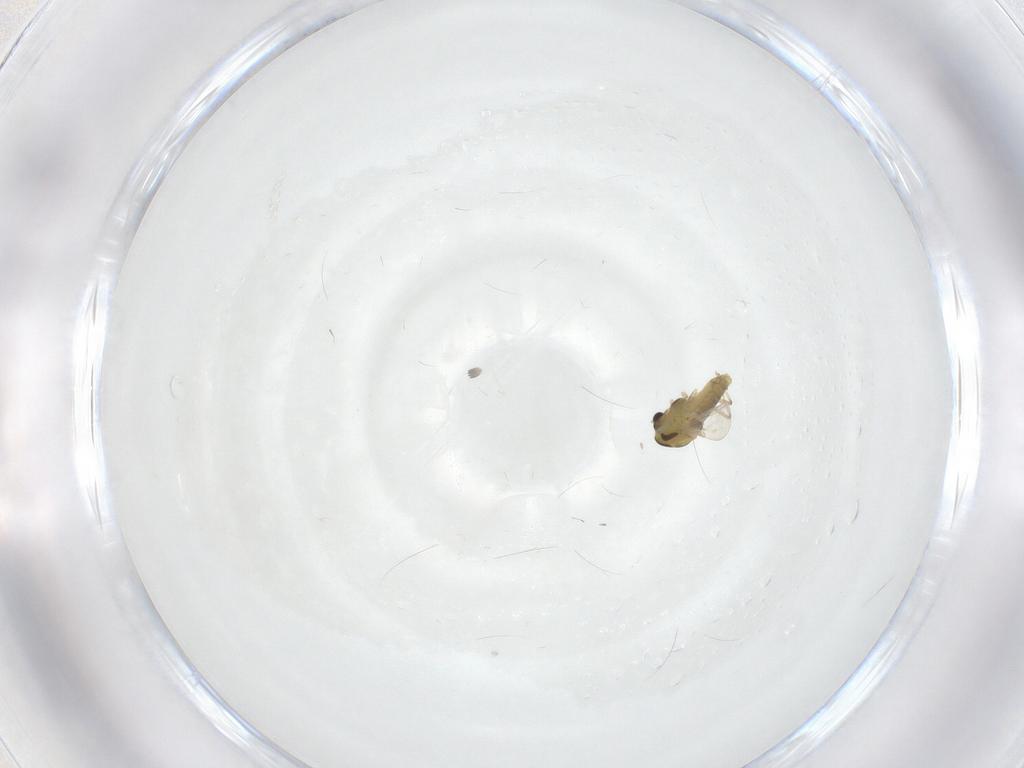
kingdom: Animalia
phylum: Arthropoda
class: Insecta
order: Diptera
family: Chironomidae
